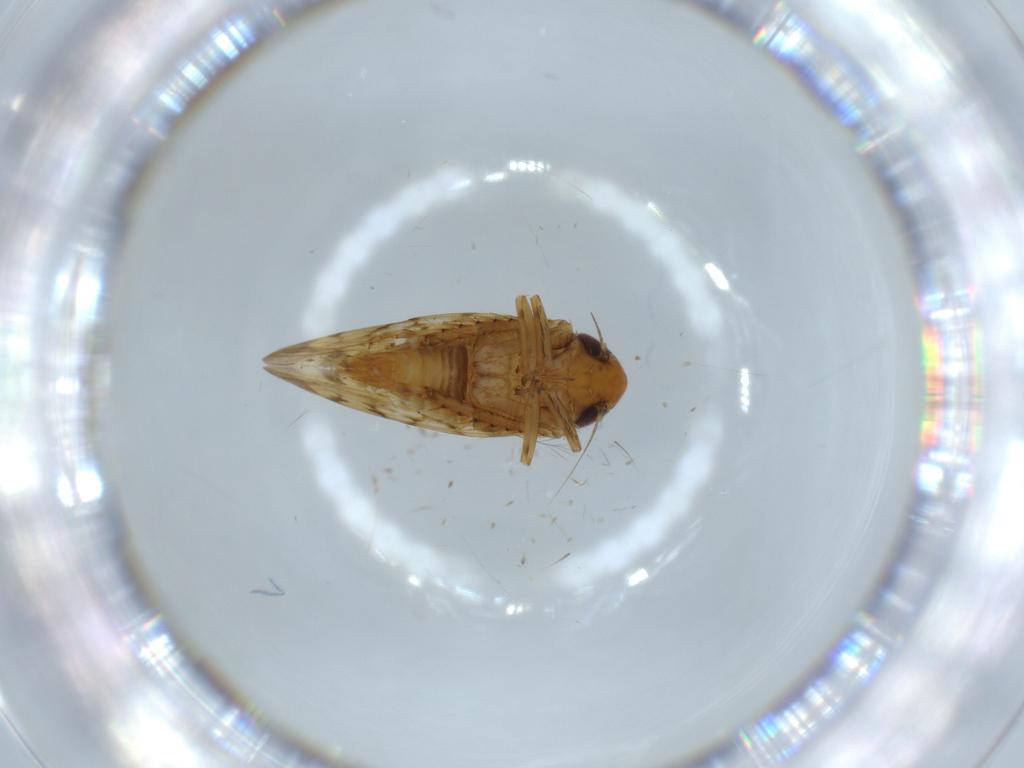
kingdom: Animalia
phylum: Arthropoda
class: Insecta
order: Hemiptera
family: Cicadellidae
